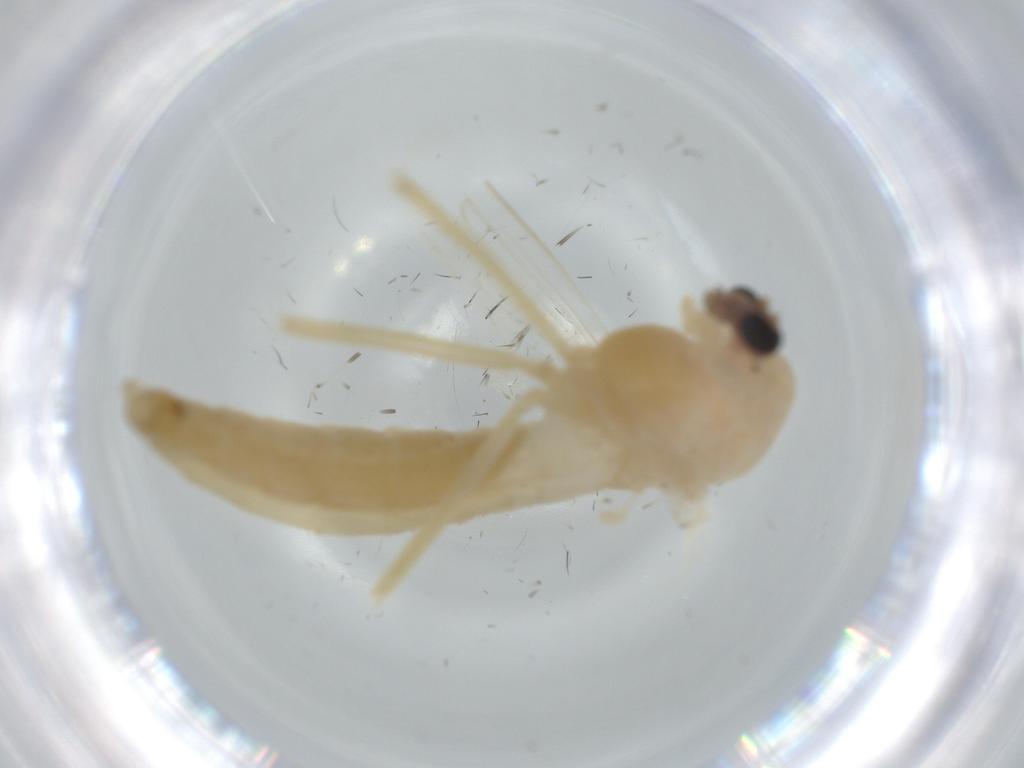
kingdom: Animalia
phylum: Arthropoda
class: Insecta
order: Diptera
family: Chironomidae
